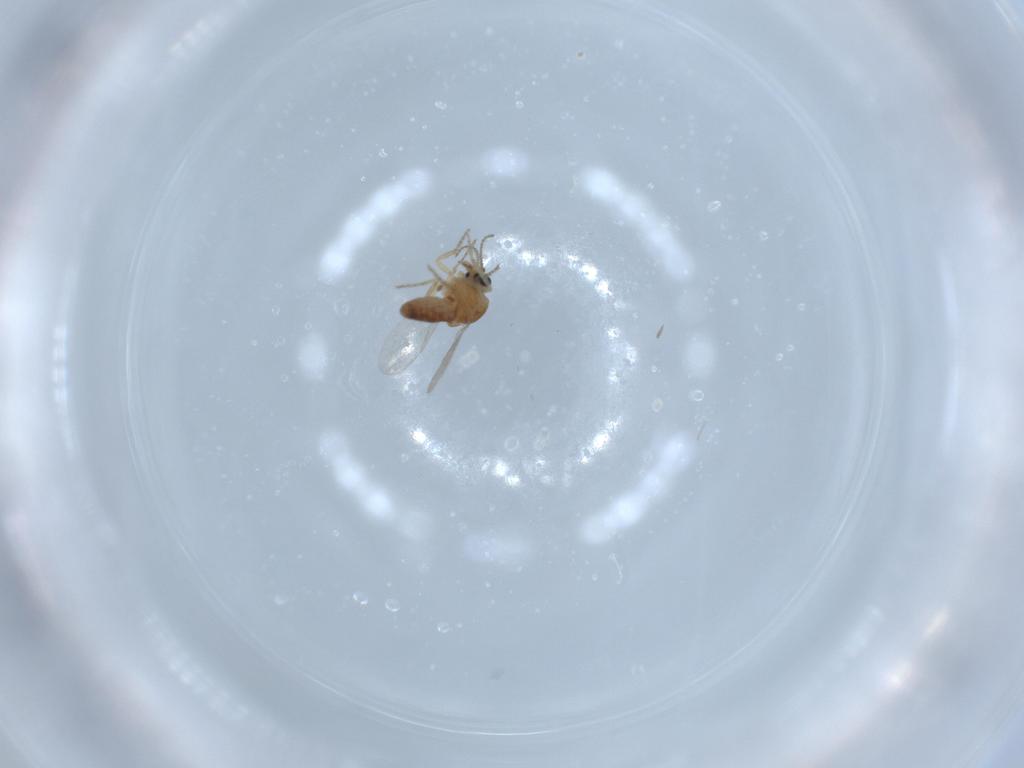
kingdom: Animalia
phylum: Arthropoda
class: Insecta
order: Diptera
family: Ceratopogonidae
